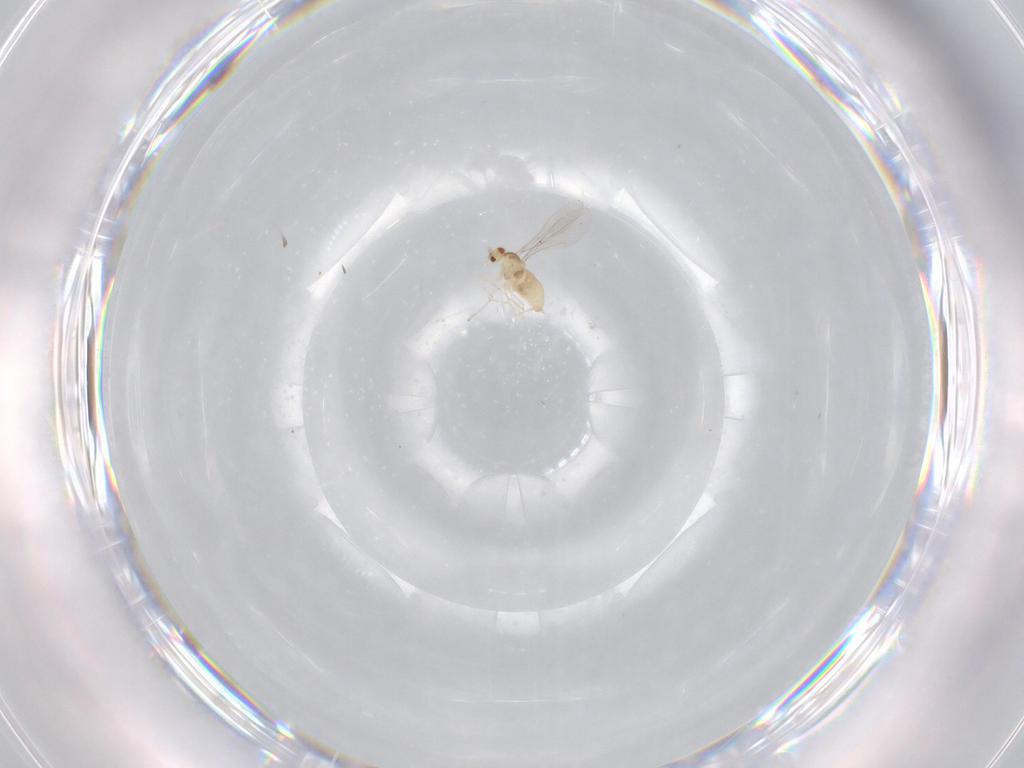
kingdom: Animalia
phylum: Arthropoda
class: Insecta
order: Diptera
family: Cecidomyiidae
